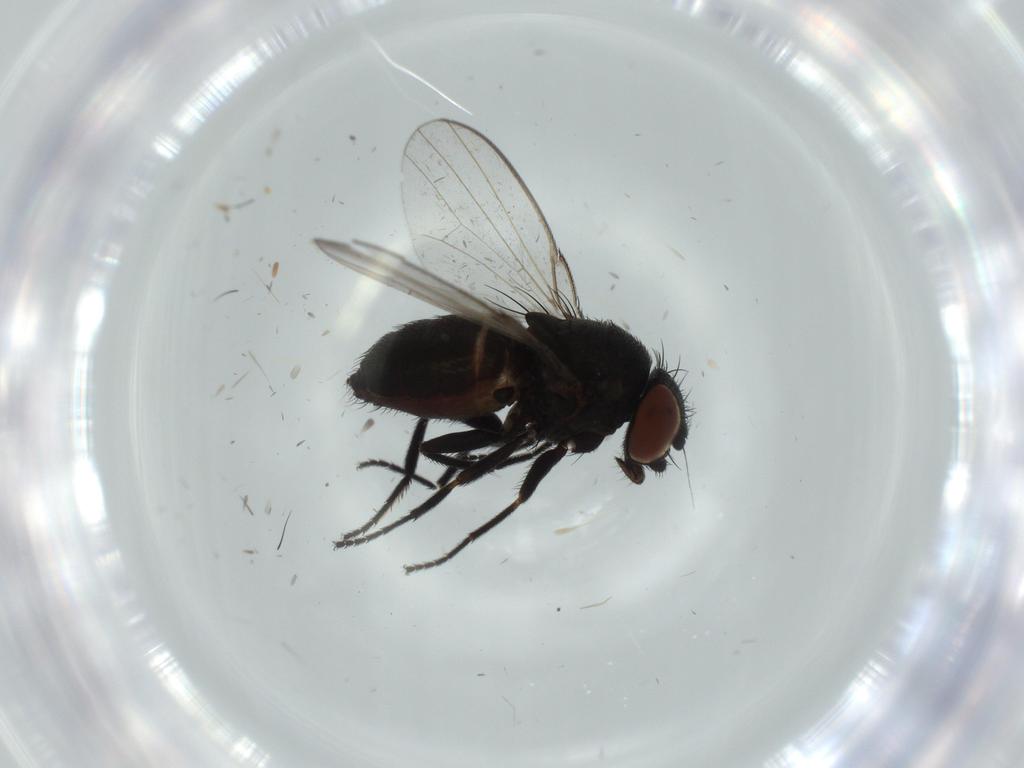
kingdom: Animalia
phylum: Arthropoda
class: Insecta
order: Diptera
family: Milichiidae
